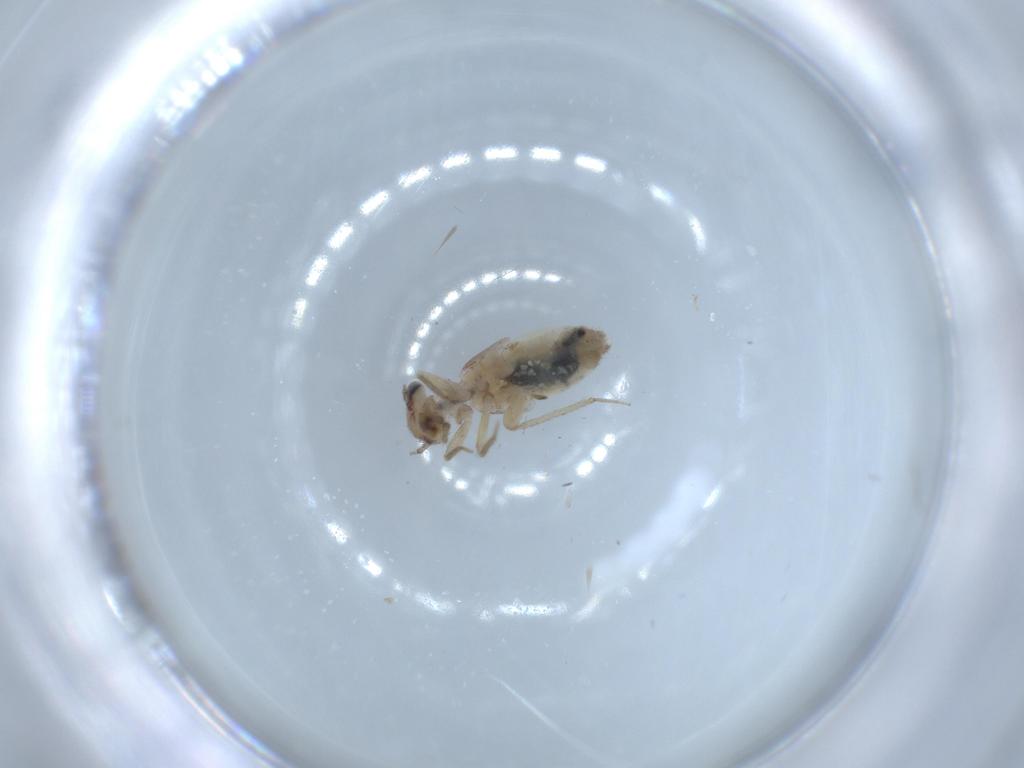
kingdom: Animalia
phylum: Arthropoda
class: Insecta
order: Psocodea
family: Lepidopsocidae
